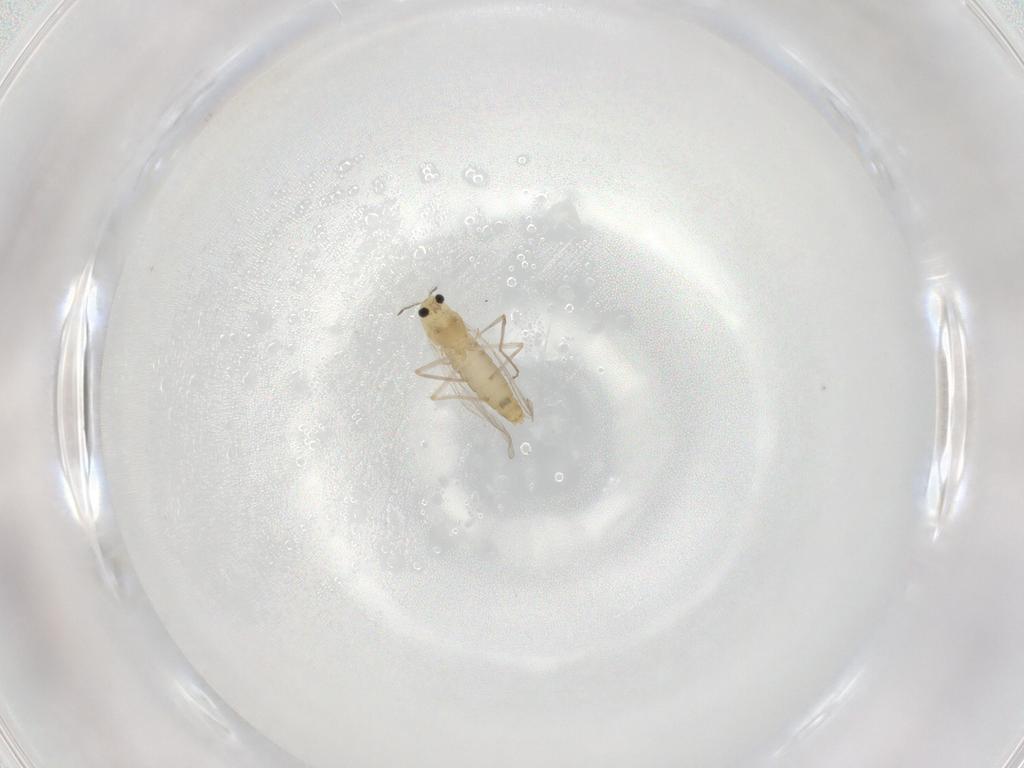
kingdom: Animalia
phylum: Arthropoda
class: Insecta
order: Diptera
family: Chironomidae
